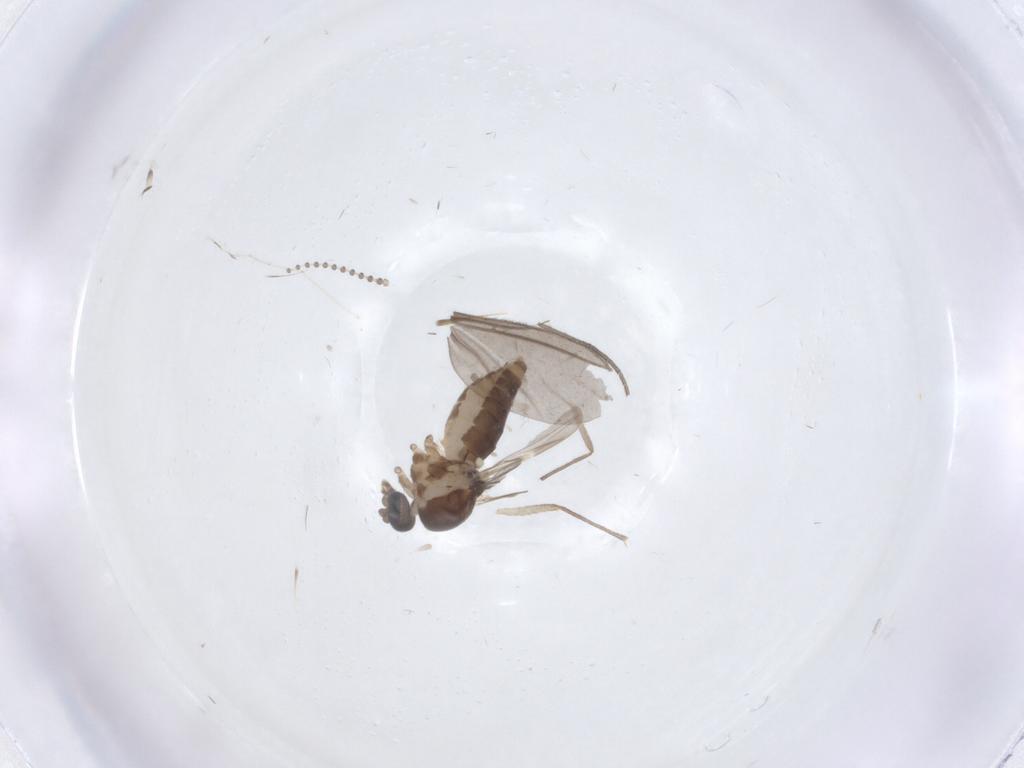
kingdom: Animalia
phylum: Arthropoda
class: Insecta
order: Diptera
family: Ceratopogonidae
